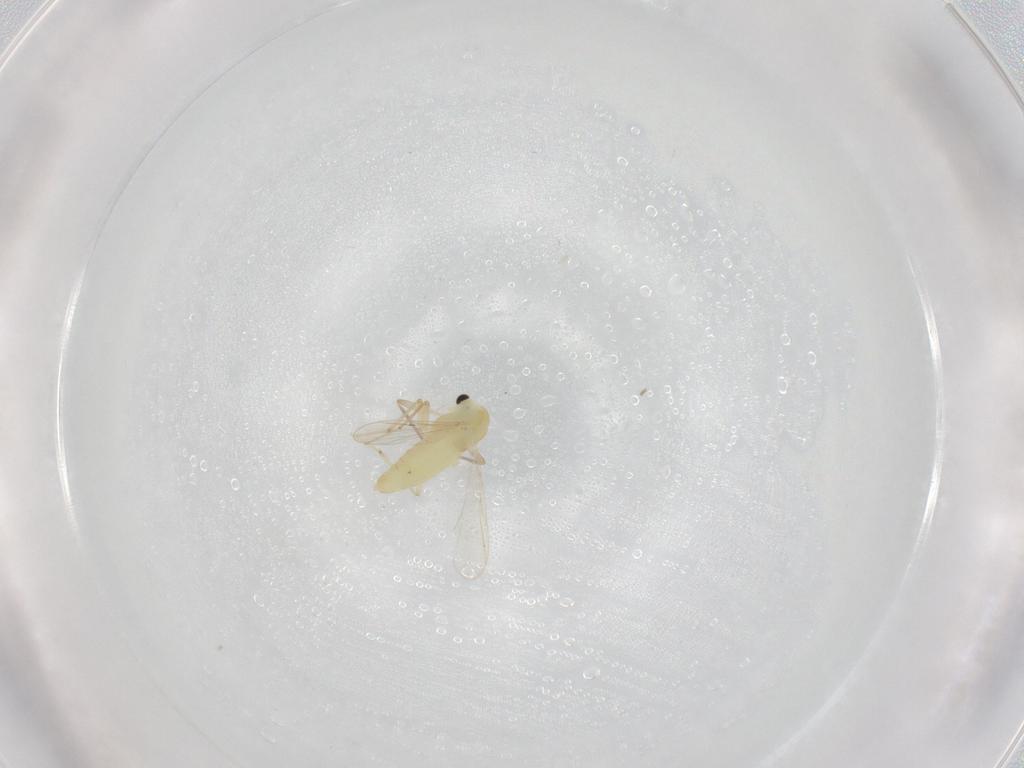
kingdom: Animalia
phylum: Arthropoda
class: Insecta
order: Diptera
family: Chironomidae
